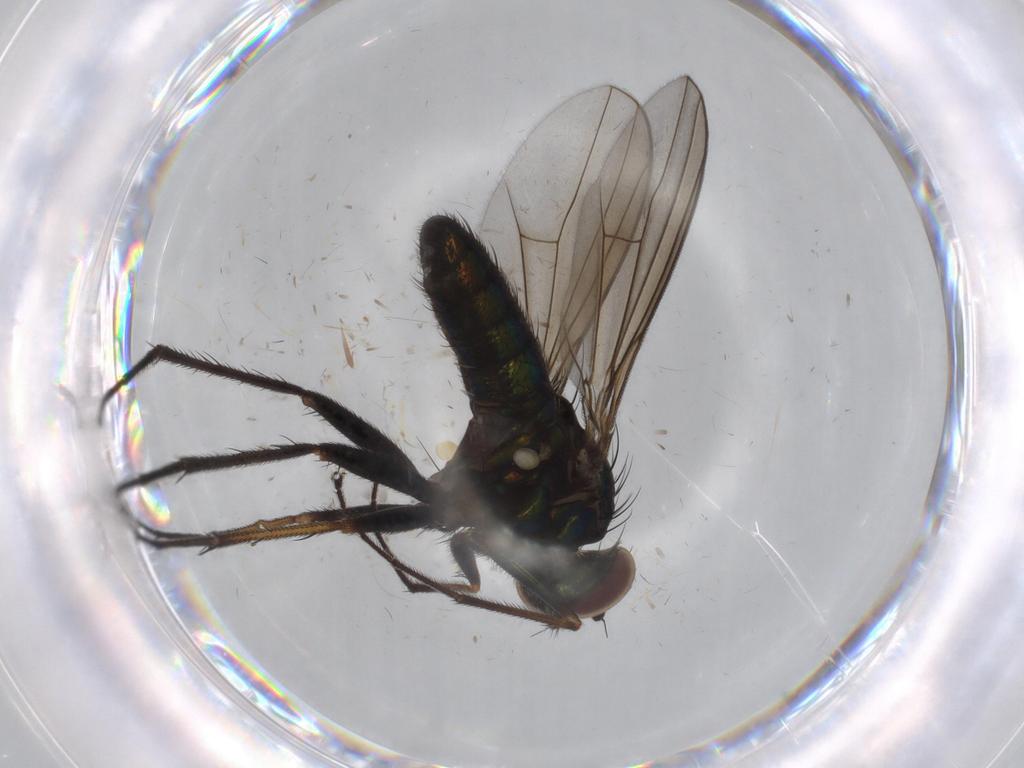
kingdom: Animalia
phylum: Arthropoda
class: Insecta
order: Diptera
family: Dolichopodidae
